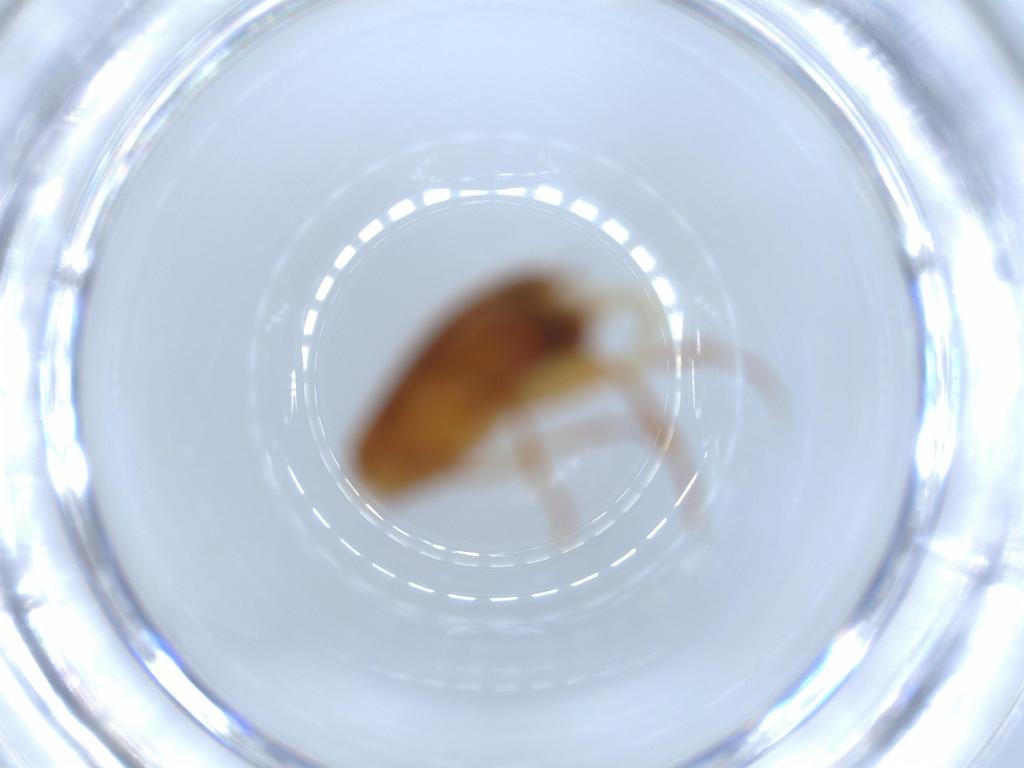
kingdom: Animalia
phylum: Arthropoda
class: Insecta
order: Coleoptera
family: Scraptiidae
